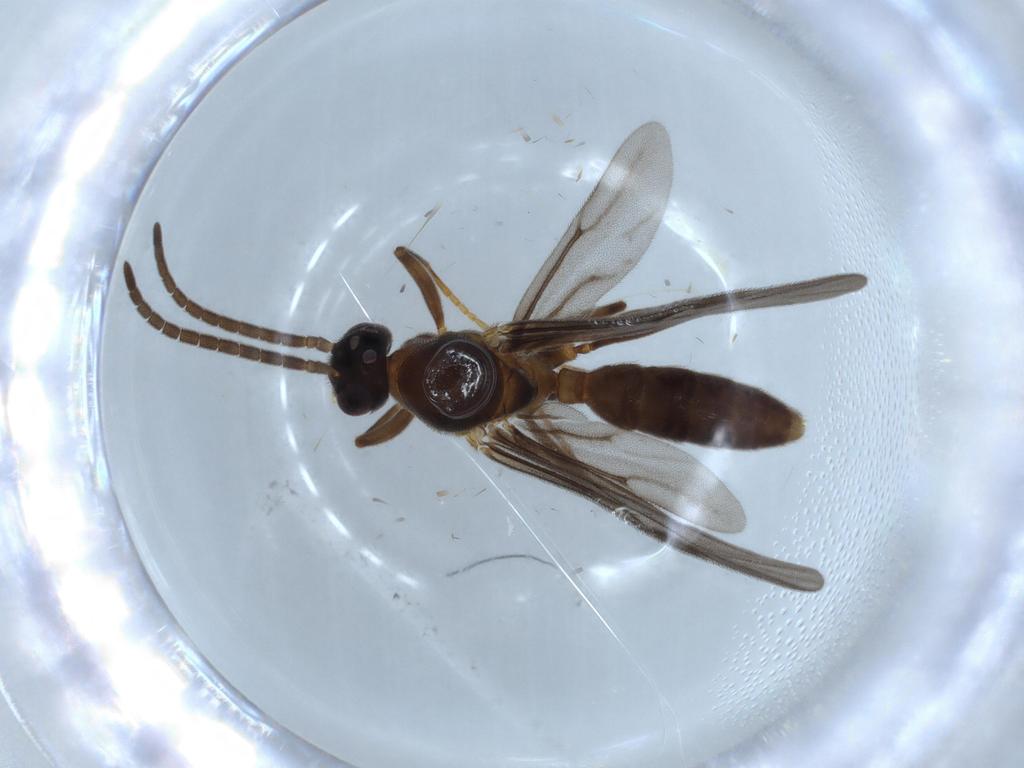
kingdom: Animalia
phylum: Arthropoda
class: Insecta
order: Hymenoptera
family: Formicidae
